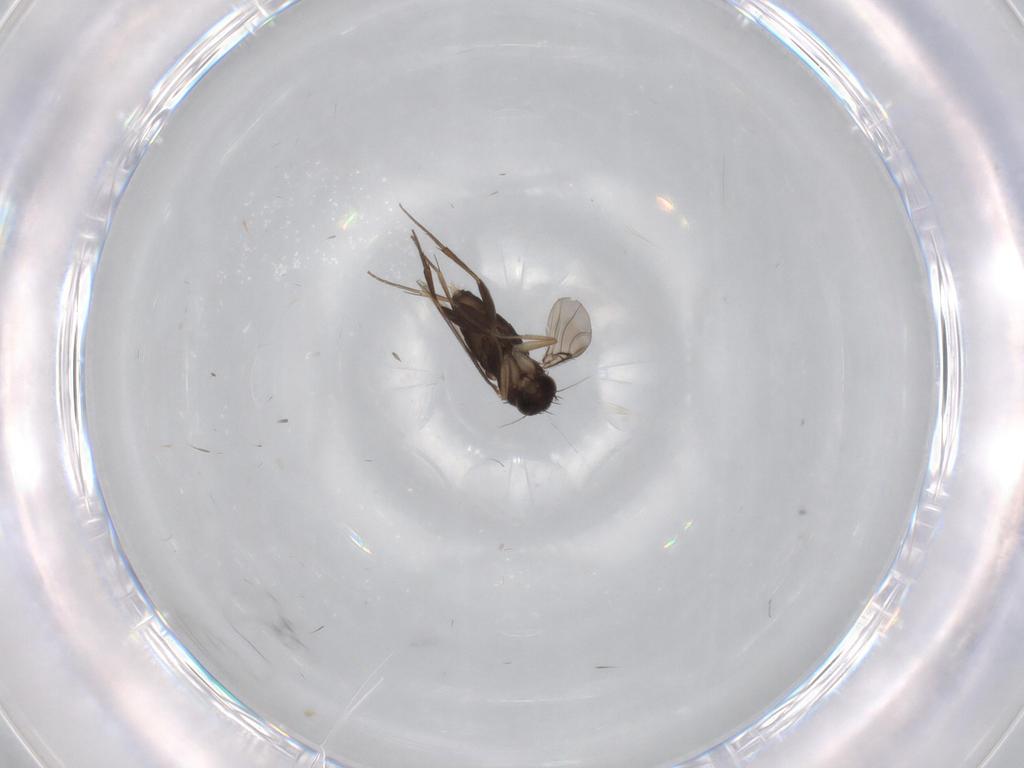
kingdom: Animalia
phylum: Arthropoda
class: Insecta
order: Diptera
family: Phoridae
